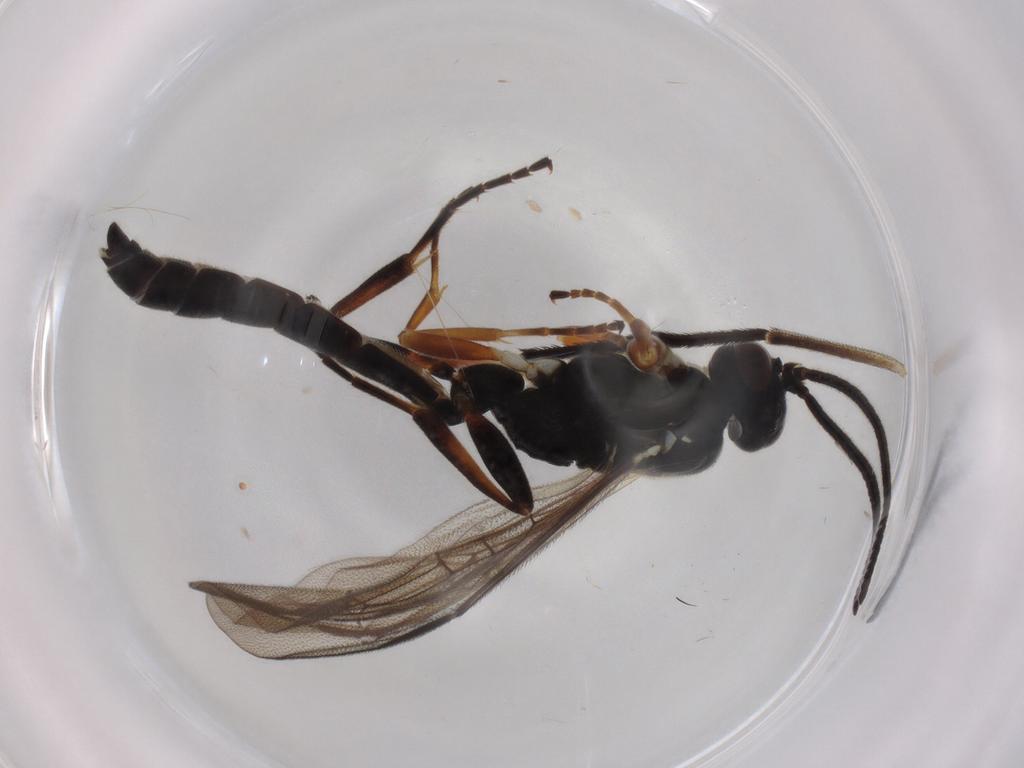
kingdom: Animalia
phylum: Arthropoda
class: Insecta
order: Hymenoptera
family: Ichneumonidae
